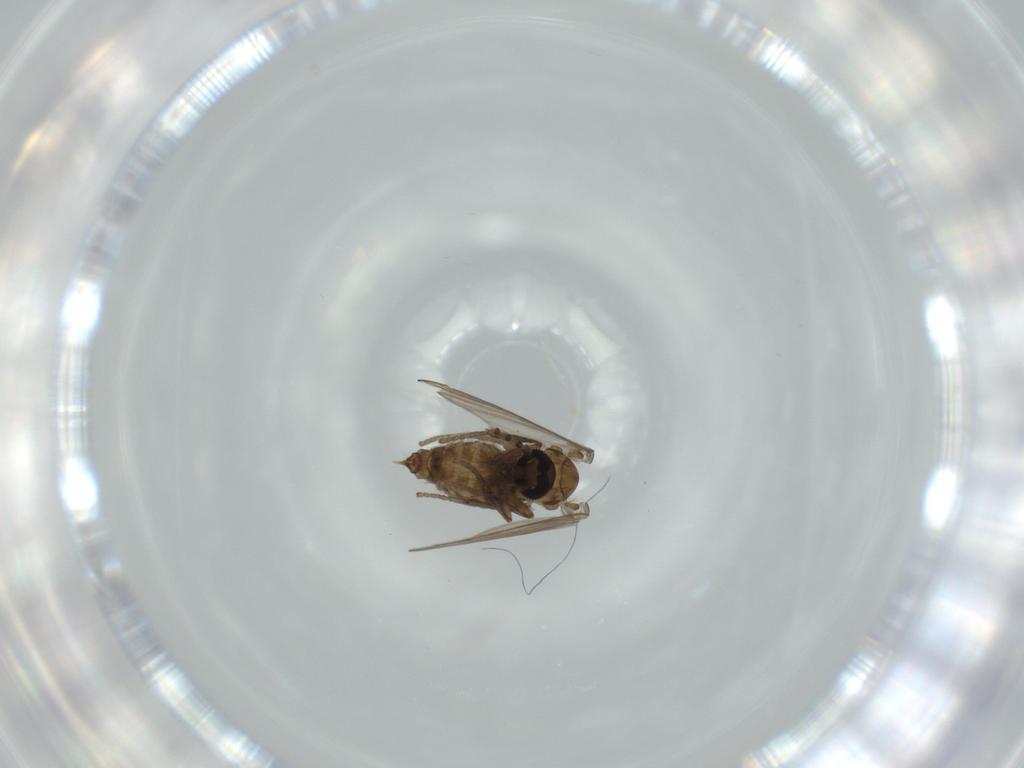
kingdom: Animalia
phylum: Arthropoda
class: Insecta
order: Diptera
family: Psychodidae
